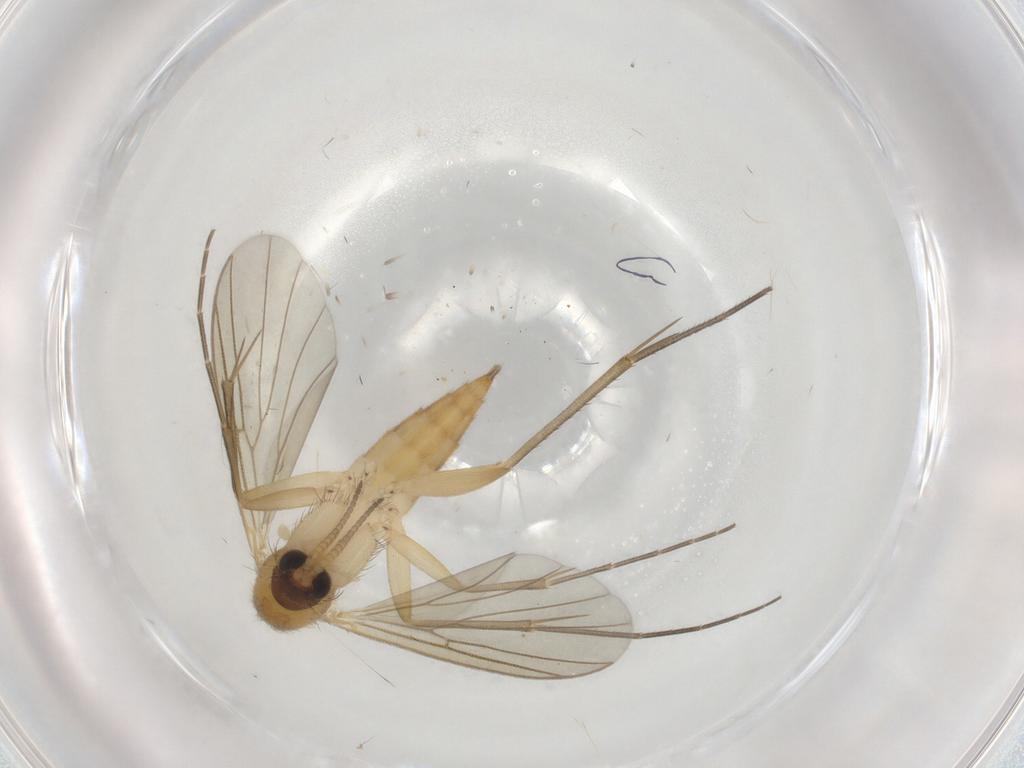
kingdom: Animalia
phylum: Arthropoda
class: Insecta
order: Diptera
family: Mycetophilidae
